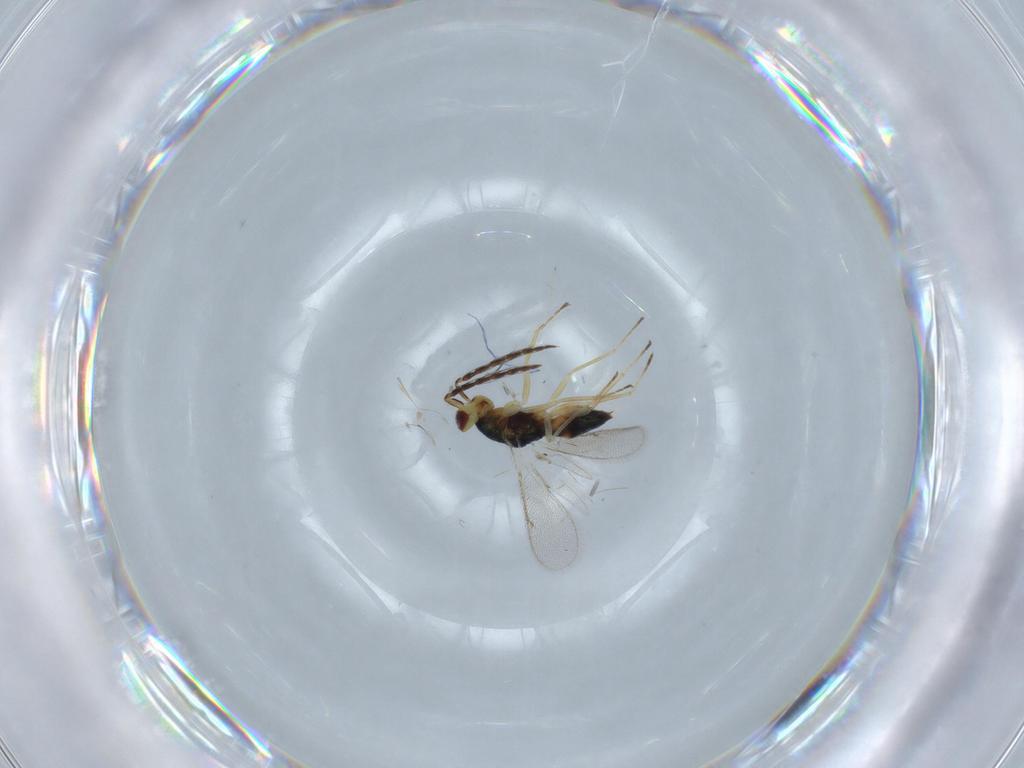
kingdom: Animalia
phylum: Arthropoda
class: Insecta
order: Hymenoptera
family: Eulophidae
